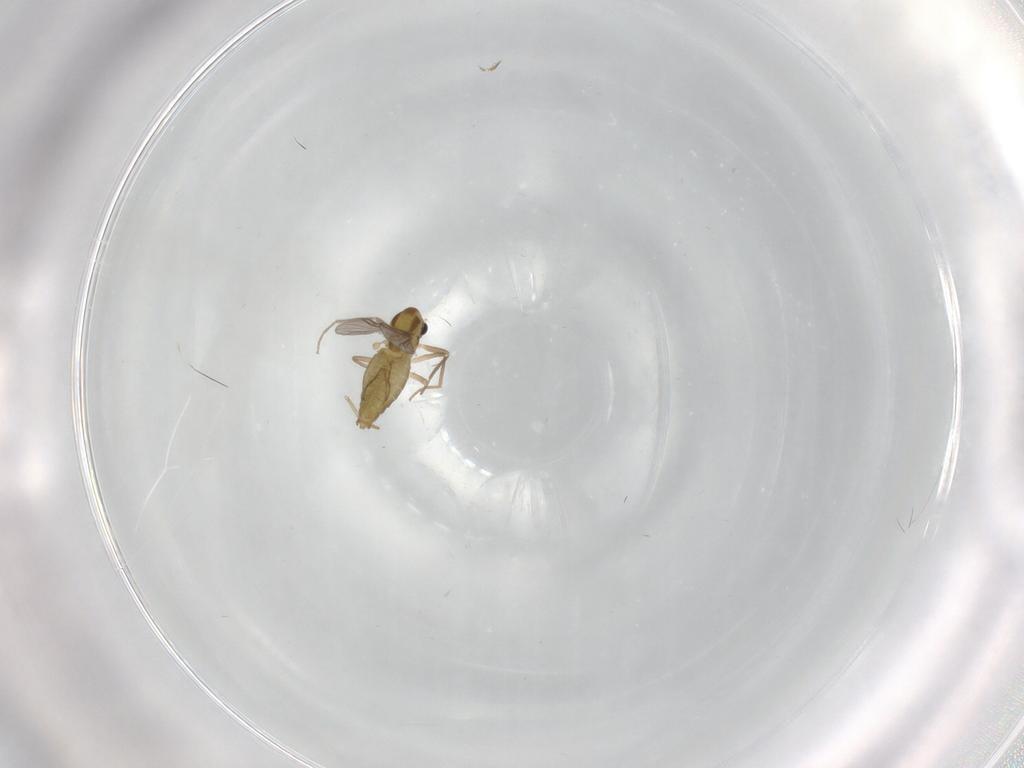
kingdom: Animalia
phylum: Arthropoda
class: Insecta
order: Diptera
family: Chironomidae
